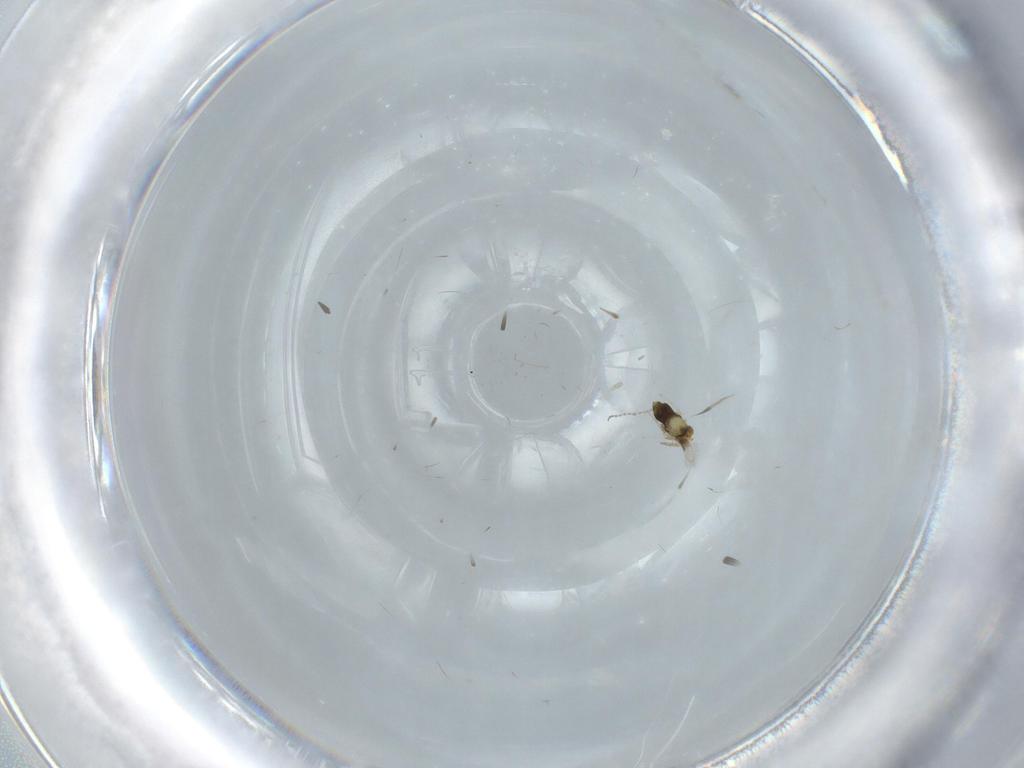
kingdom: Animalia
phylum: Arthropoda
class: Insecta
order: Hymenoptera
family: Aphelinidae
